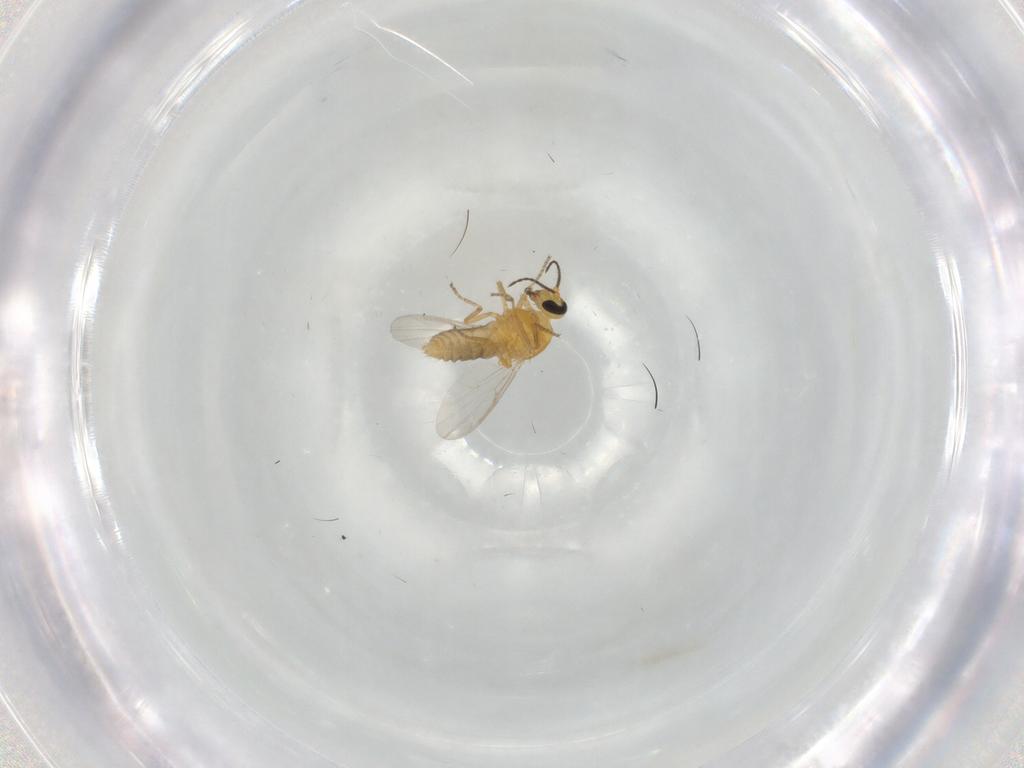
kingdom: Animalia
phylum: Arthropoda
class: Insecta
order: Diptera
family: Ceratopogonidae
